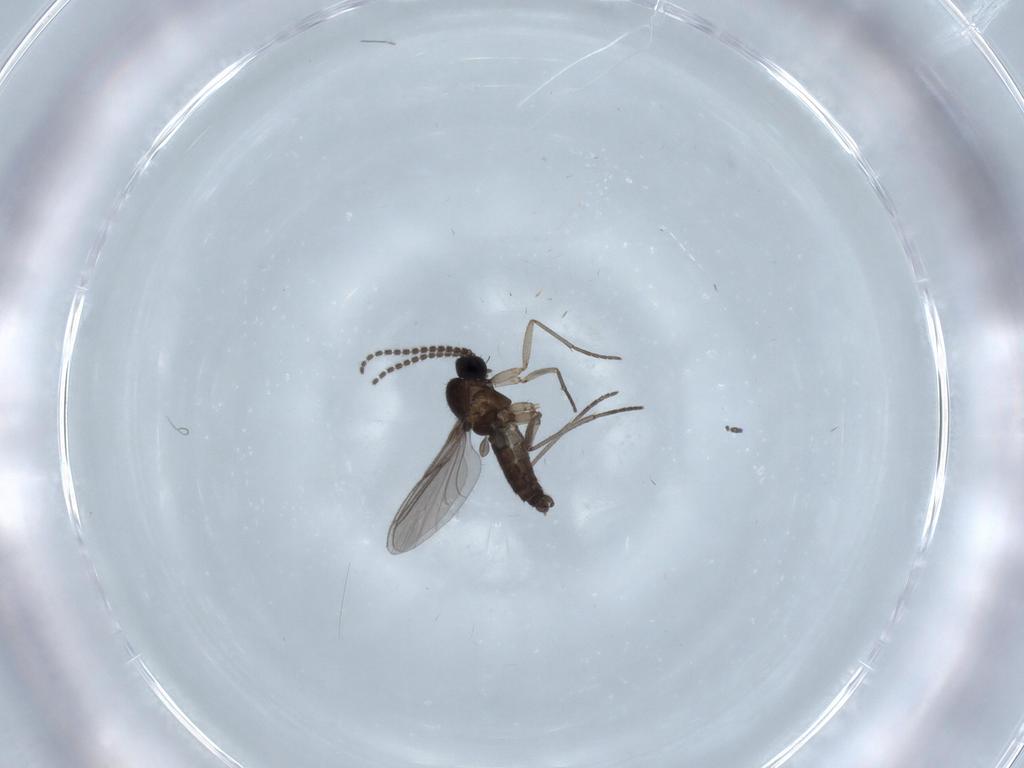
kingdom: Animalia
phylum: Arthropoda
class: Insecta
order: Diptera
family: Sciaridae
